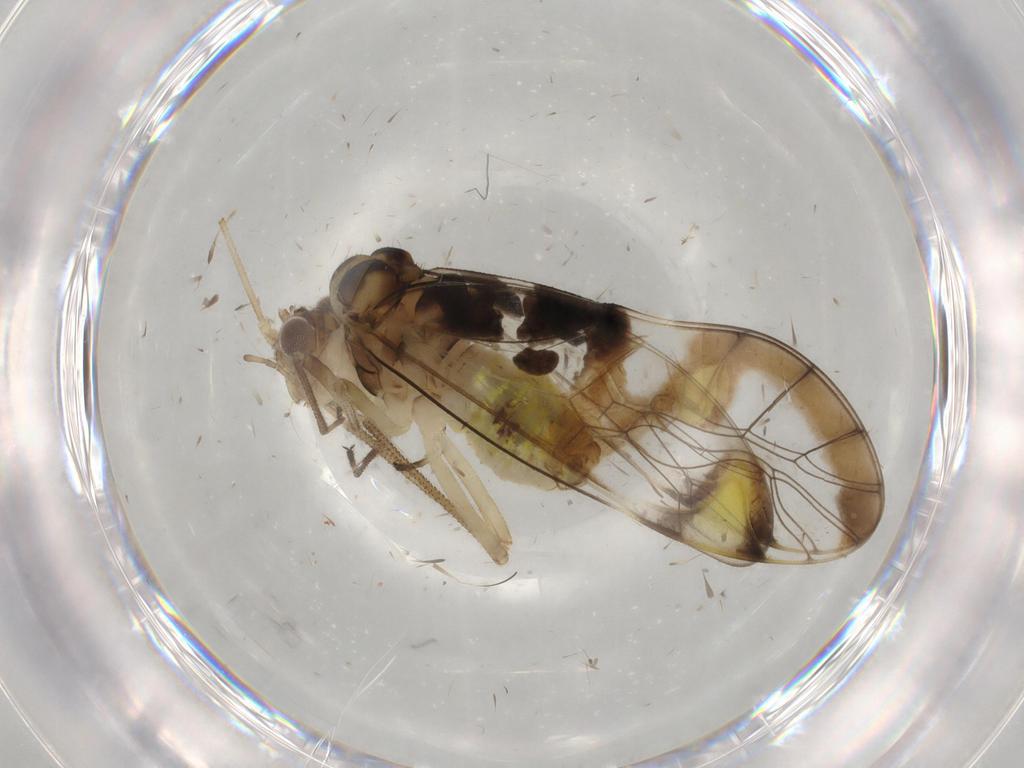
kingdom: Animalia
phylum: Arthropoda
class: Insecta
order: Psocodea
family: Amphipsocidae
